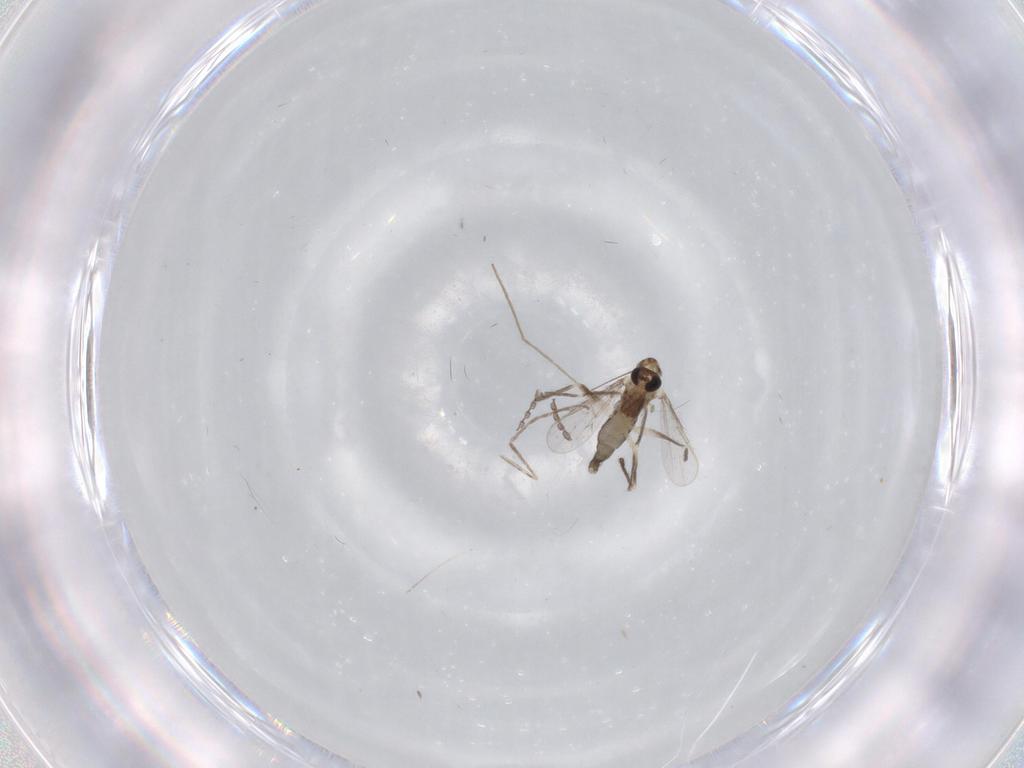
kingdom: Animalia
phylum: Arthropoda
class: Insecta
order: Diptera
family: Chironomidae
